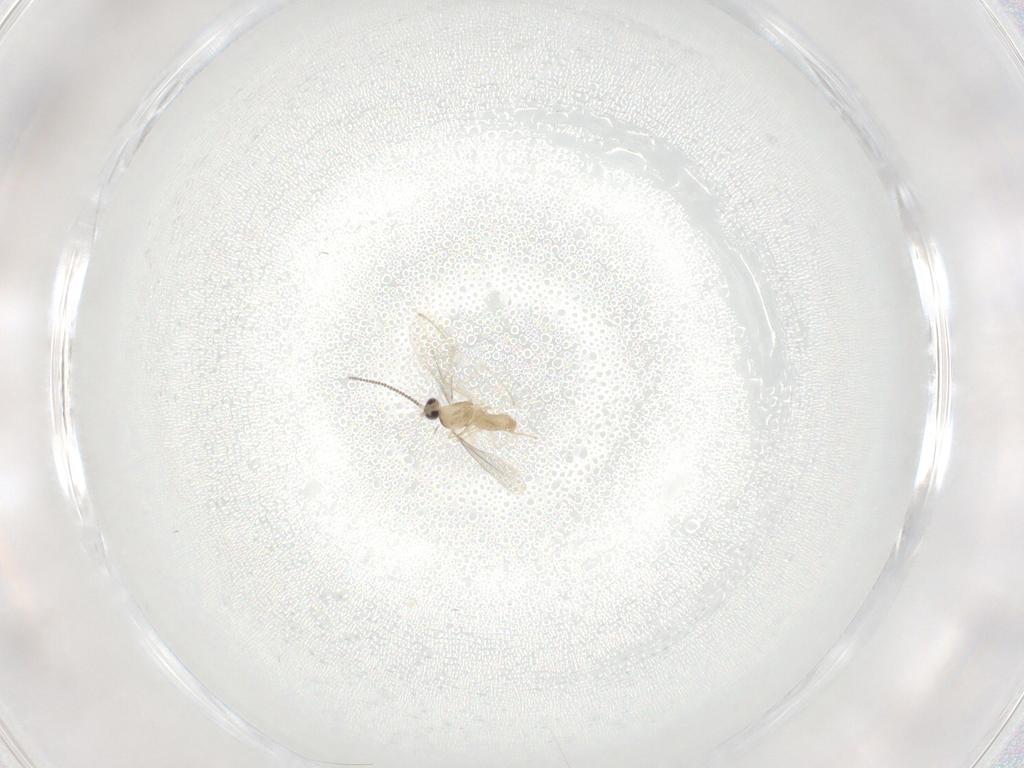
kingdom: Animalia
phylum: Arthropoda
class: Insecta
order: Diptera
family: Cecidomyiidae
